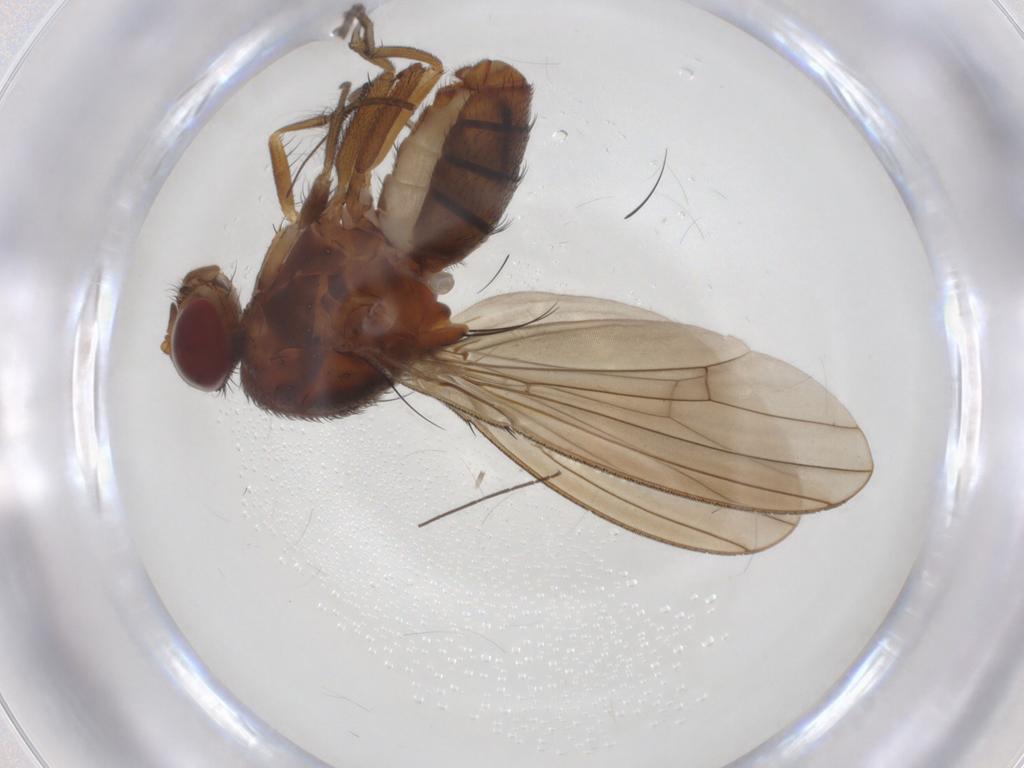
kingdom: Animalia
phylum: Arthropoda
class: Insecta
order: Diptera
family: Curtonotidae
